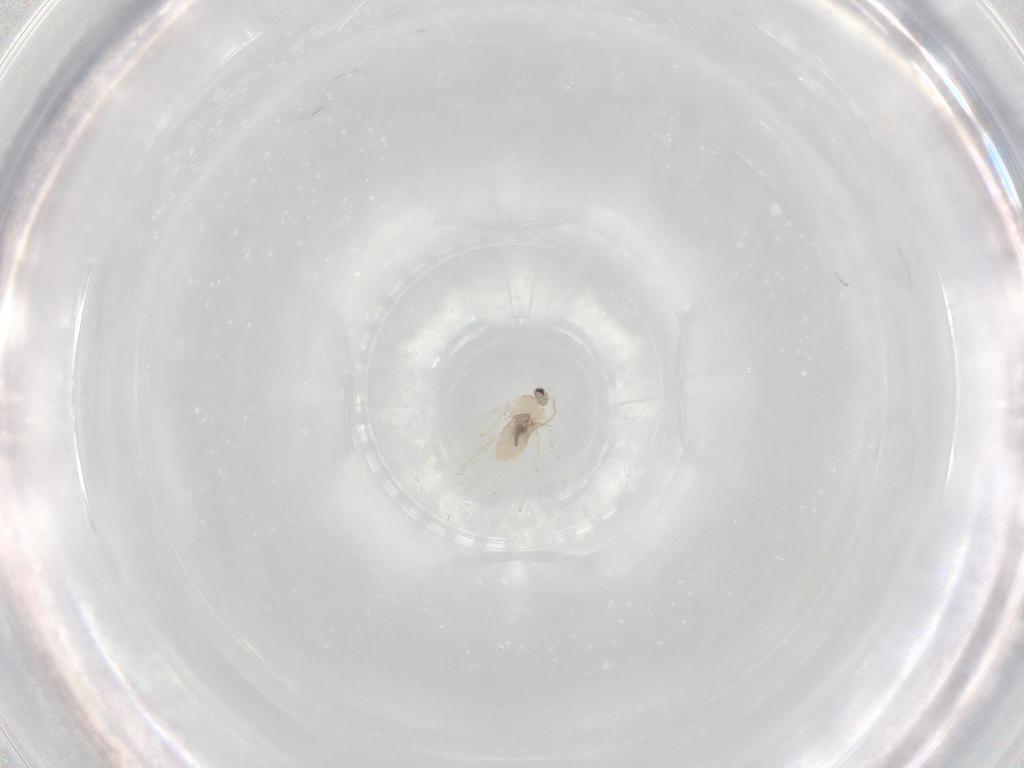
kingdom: Animalia
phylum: Arthropoda
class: Insecta
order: Diptera
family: Cecidomyiidae
